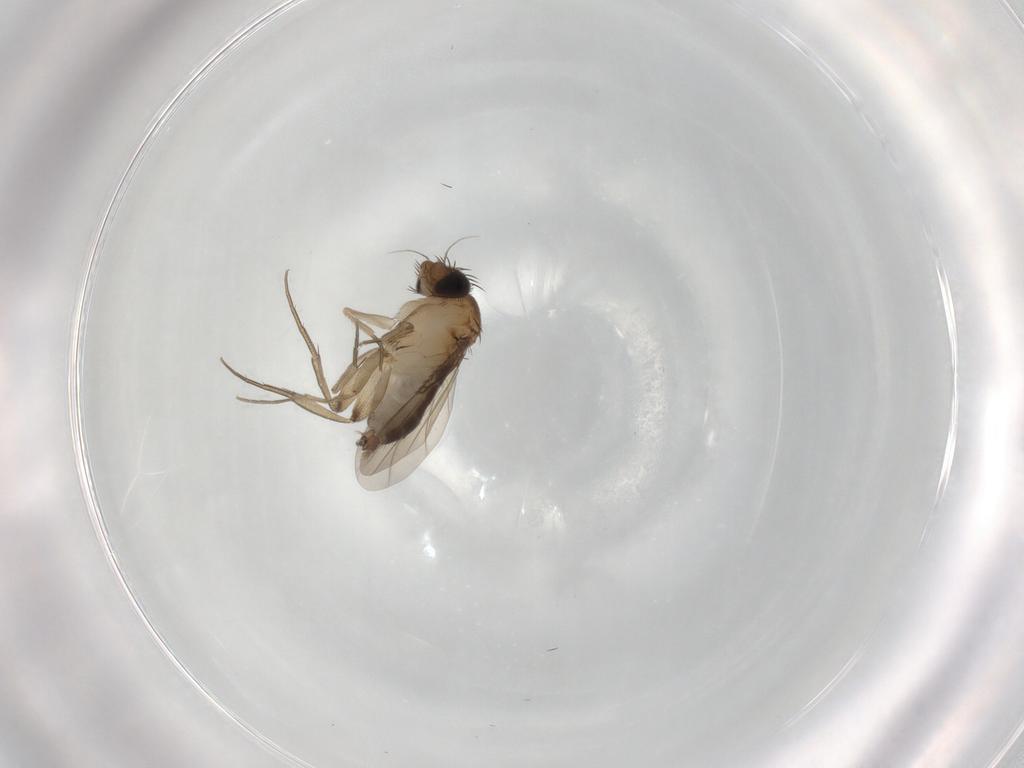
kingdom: Animalia
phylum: Arthropoda
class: Insecta
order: Diptera
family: Phoridae
